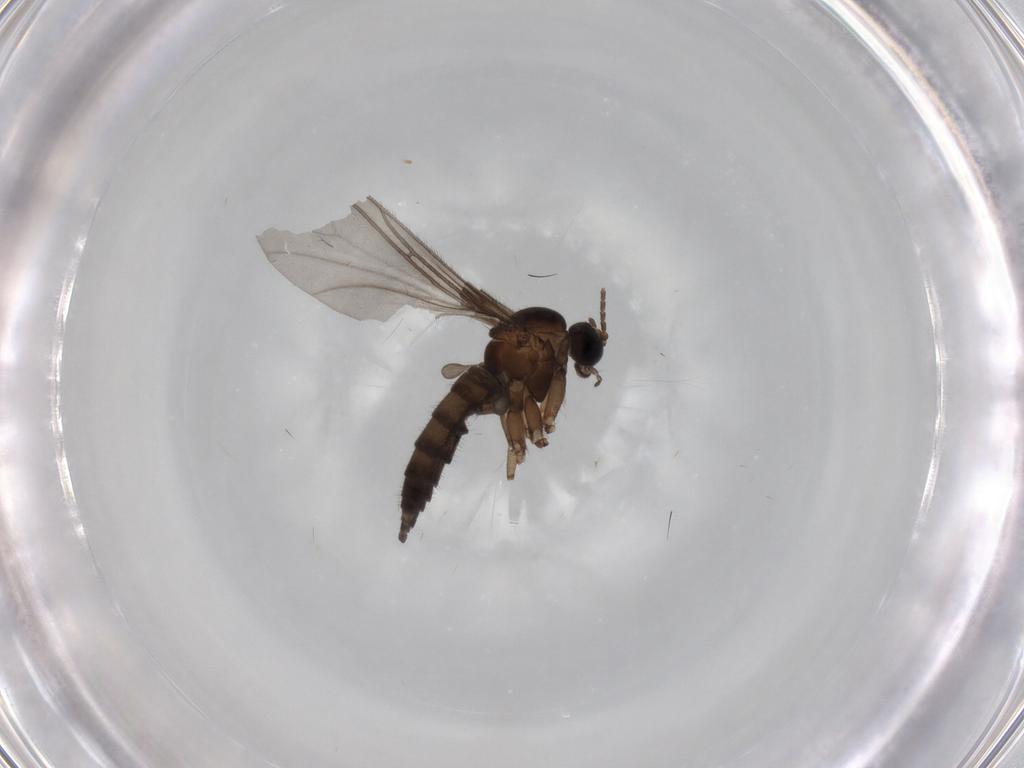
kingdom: Animalia
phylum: Arthropoda
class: Insecta
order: Diptera
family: Sciaridae
